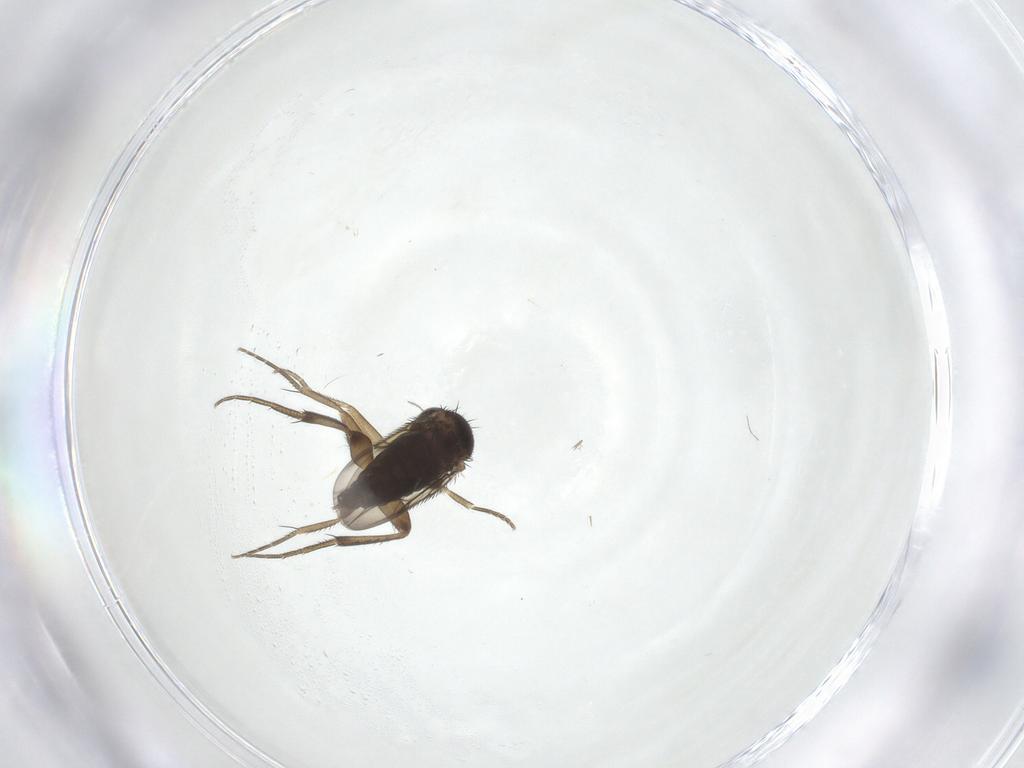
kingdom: Animalia
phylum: Arthropoda
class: Insecta
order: Diptera
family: Phoridae
